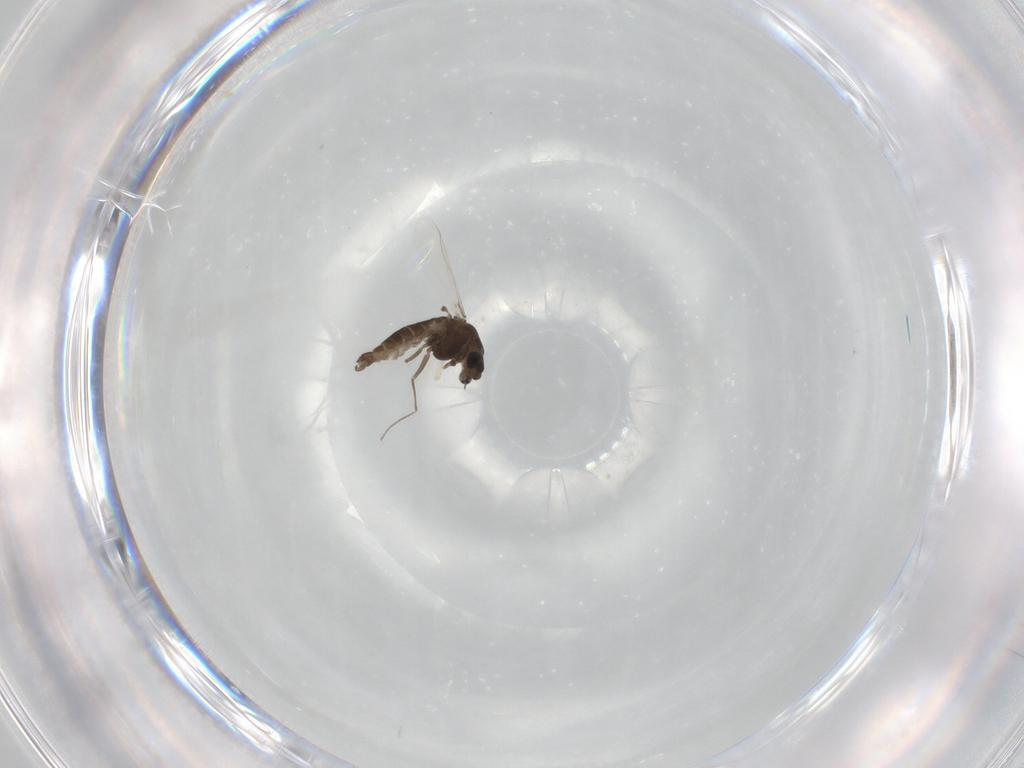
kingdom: Animalia
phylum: Arthropoda
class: Insecta
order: Diptera
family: Chironomidae
